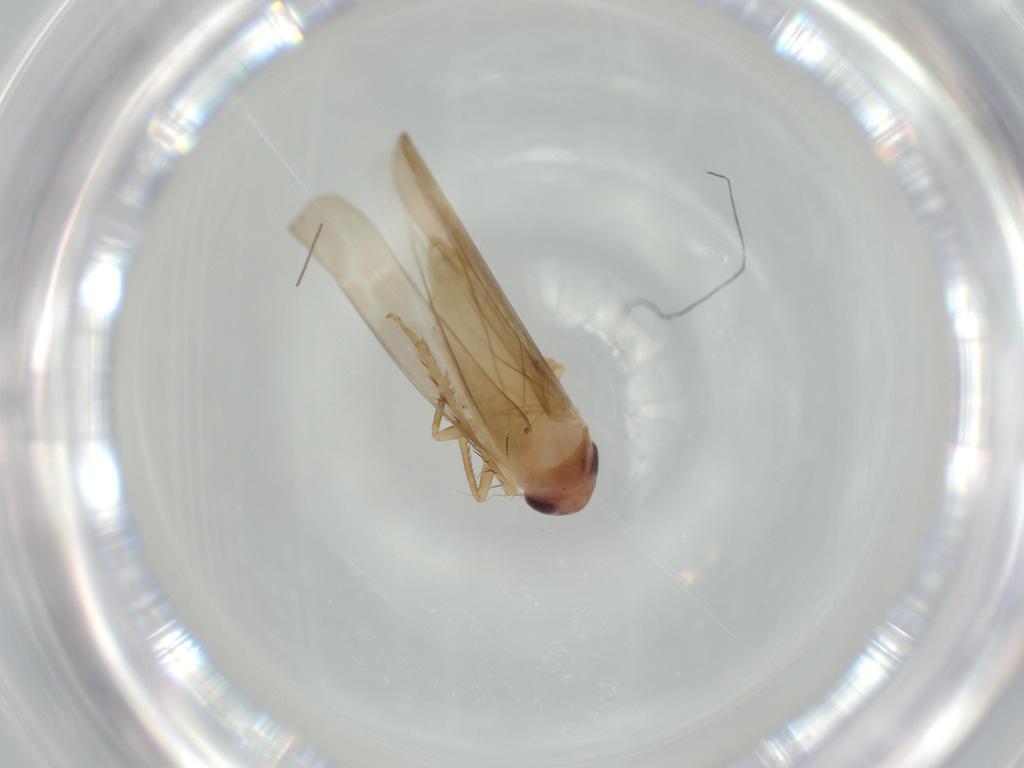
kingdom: Animalia
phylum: Arthropoda
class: Insecta
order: Hemiptera
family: Cicadellidae
